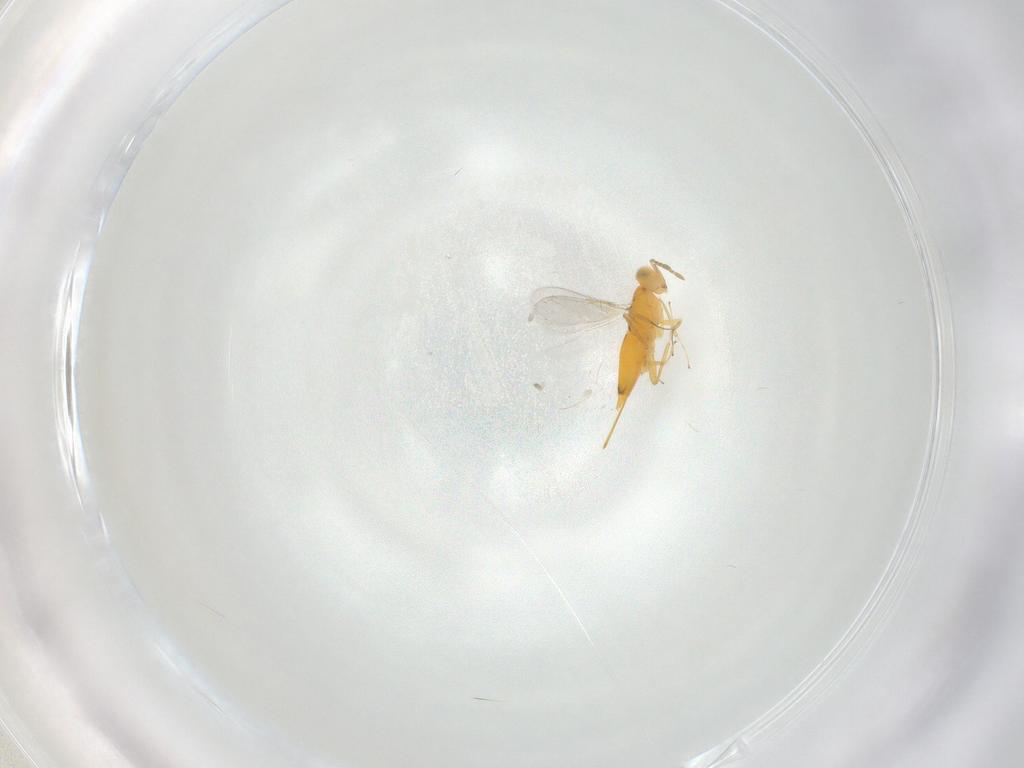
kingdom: Animalia
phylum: Arthropoda
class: Insecta
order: Hymenoptera
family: Aphelinidae
